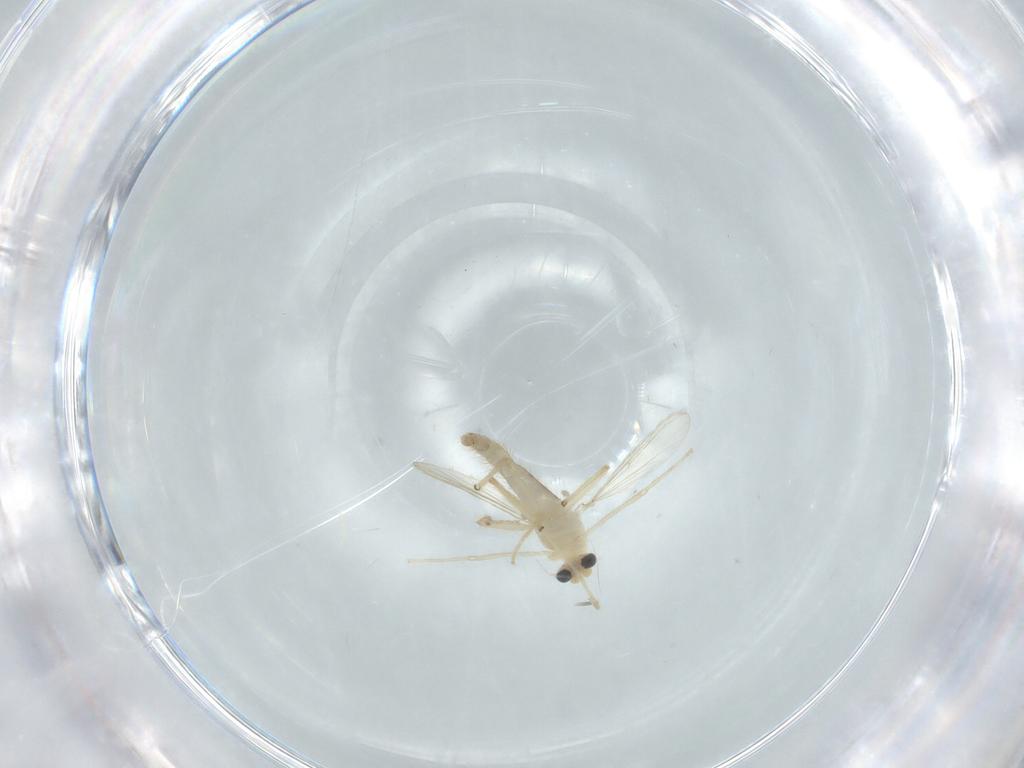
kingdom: Animalia
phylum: Arthropoda
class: Insecta
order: Diptera
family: Chironomidae
